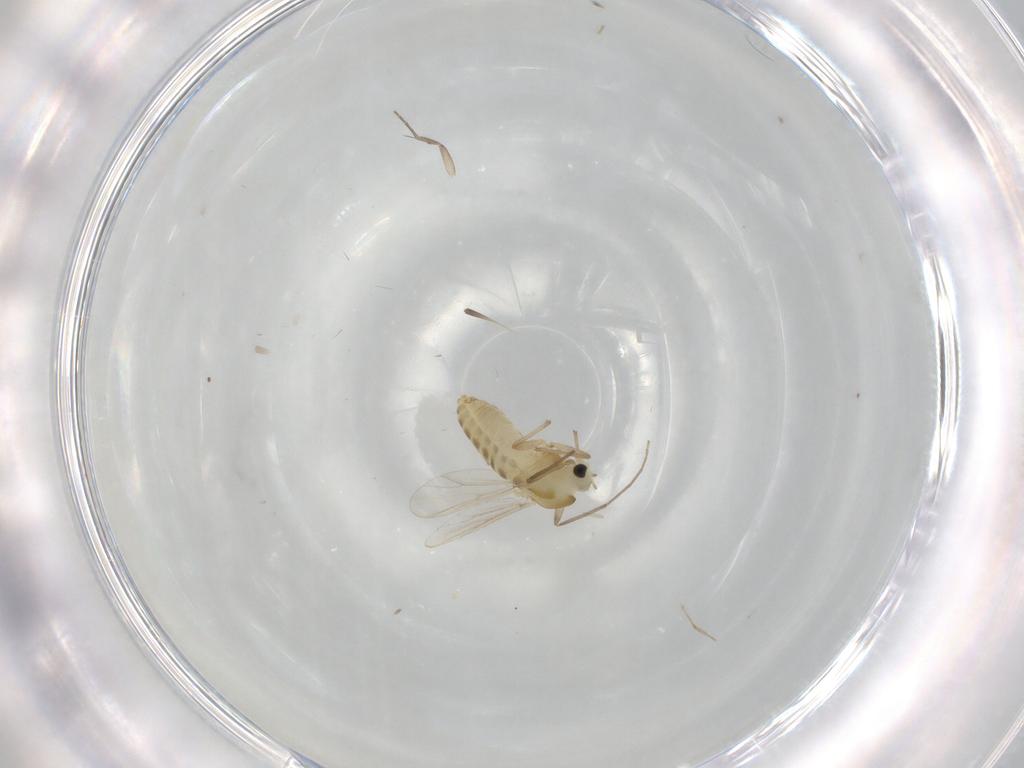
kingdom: Animalia
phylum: Arthropoda
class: Insecta
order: Diptera
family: Chironomidae
